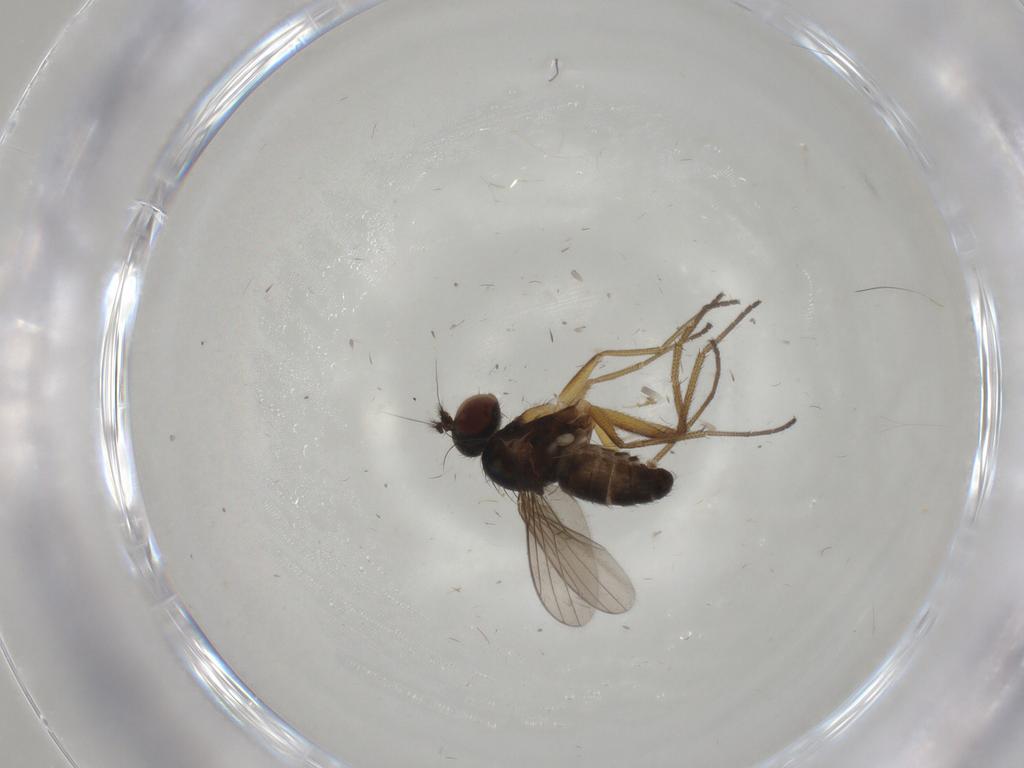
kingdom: Animalia
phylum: Arthropoda
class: Insecta
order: Diptera
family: Dolichopodidae
